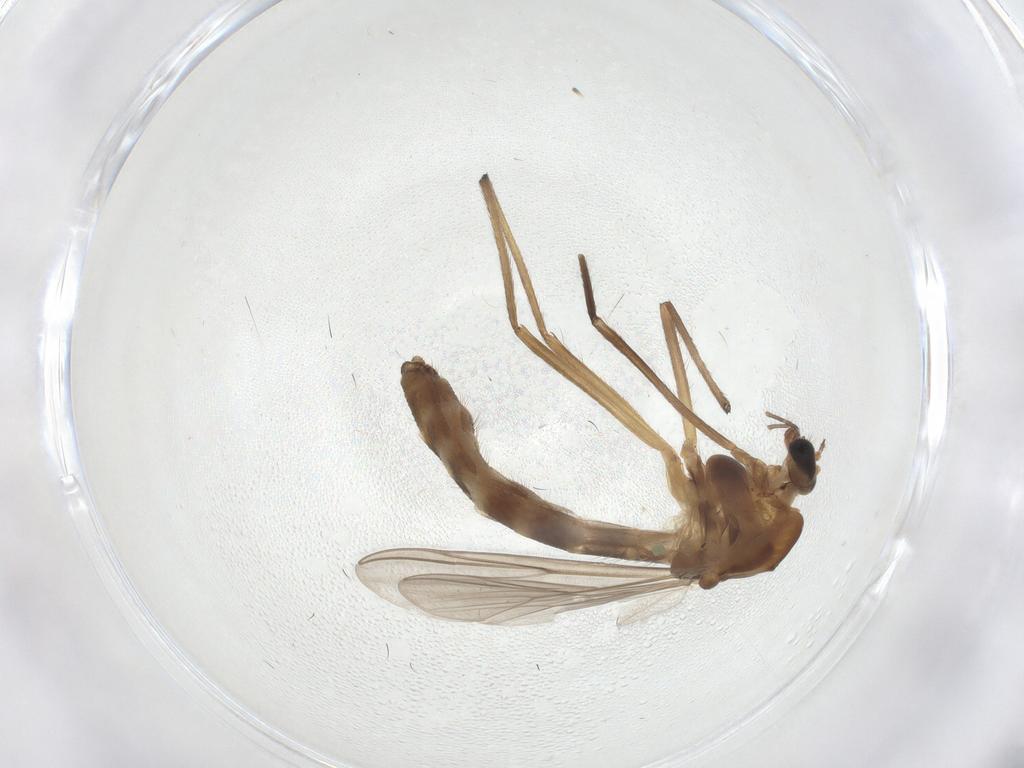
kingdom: Animalia
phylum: Arthropoda
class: Insecta
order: Diptera
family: Chironomidae
